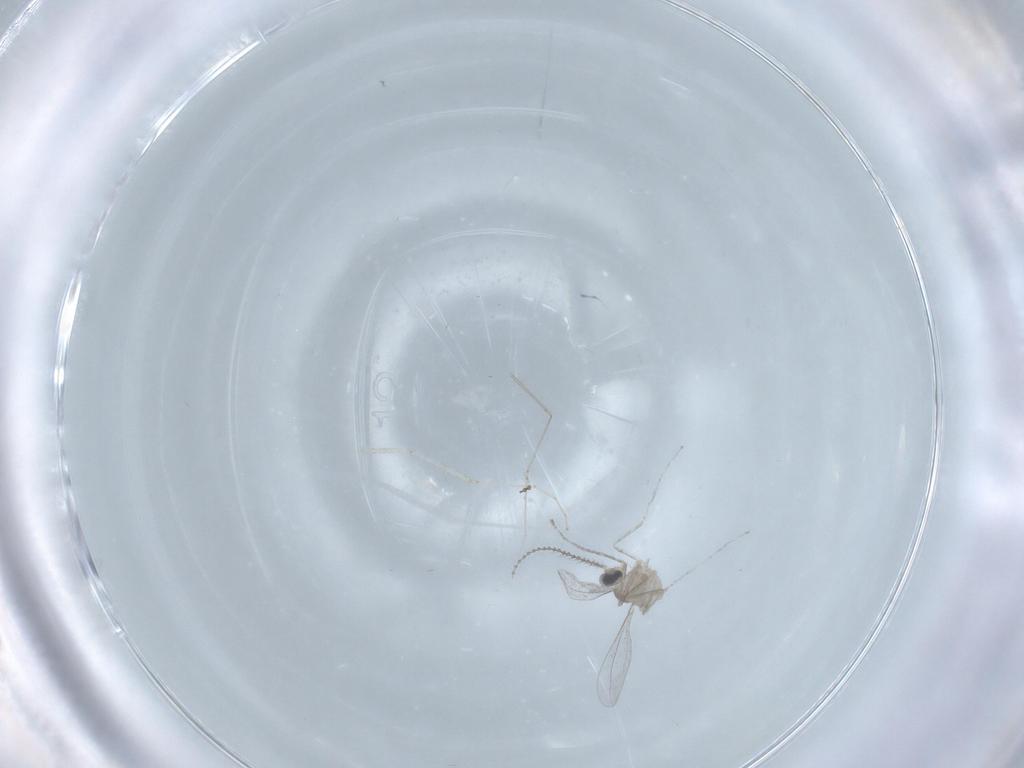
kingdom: Animalia
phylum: Arthropoda
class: Insecta
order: Diptera
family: Cecidomyiidae
